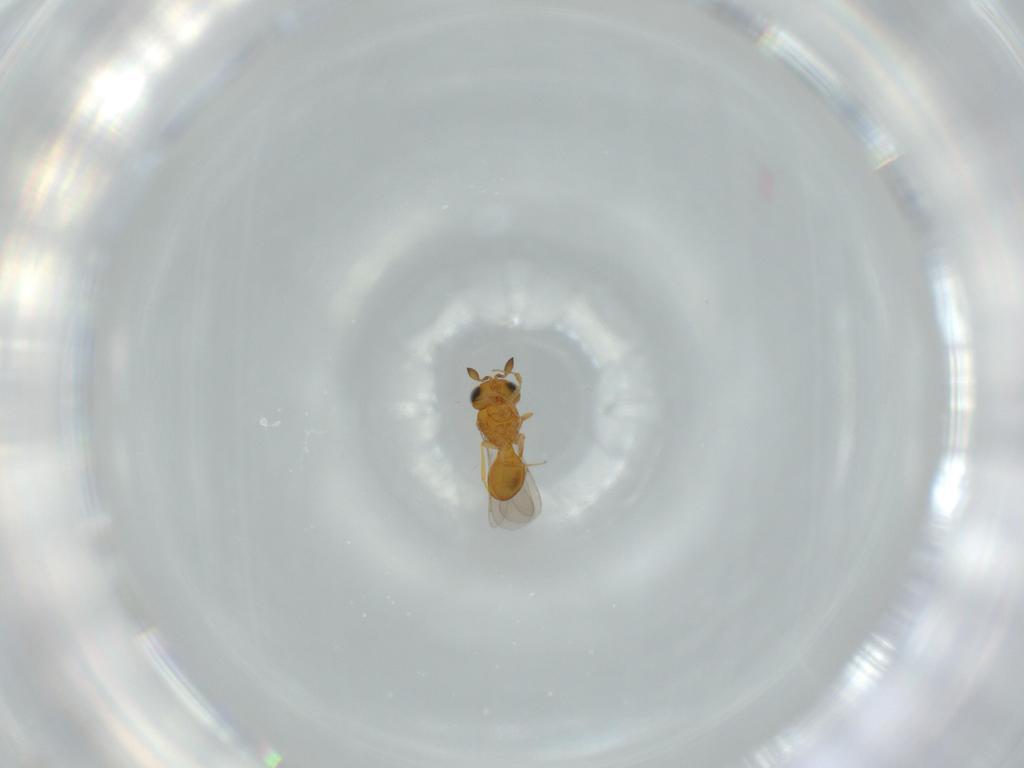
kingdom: Animalia
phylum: Arthropoda
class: Insecta
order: Hymenoptera
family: Scelionidae
